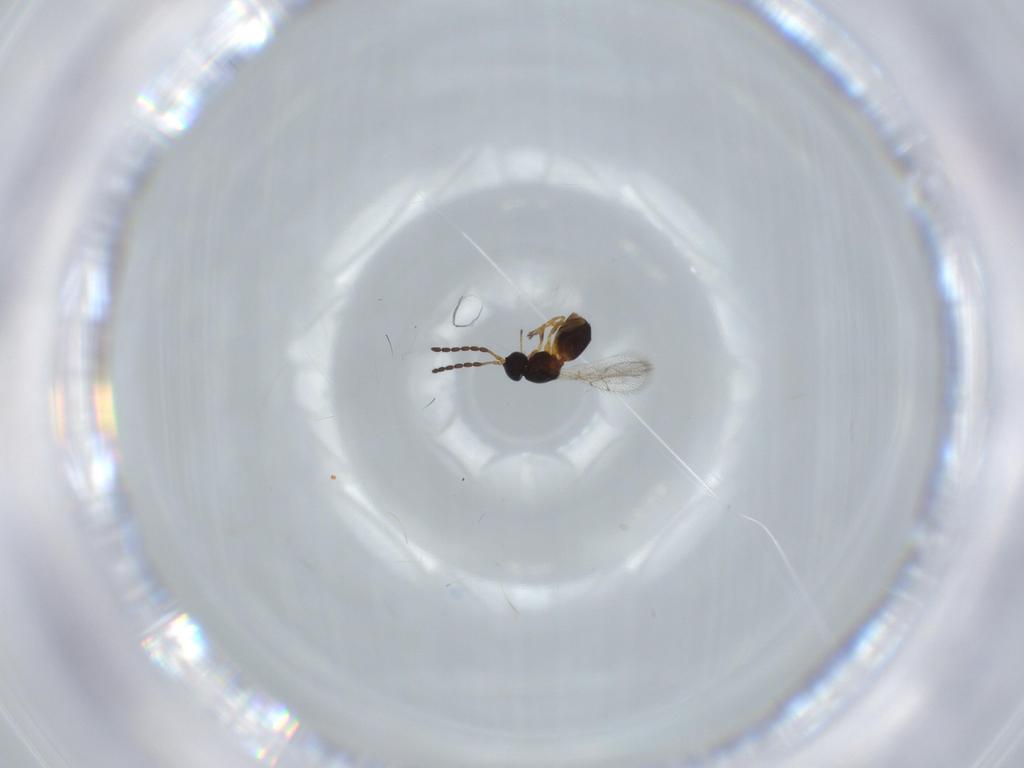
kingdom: Animalia
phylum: Arthropoda
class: Insecta
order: Hymenoptera
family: Figitidae
